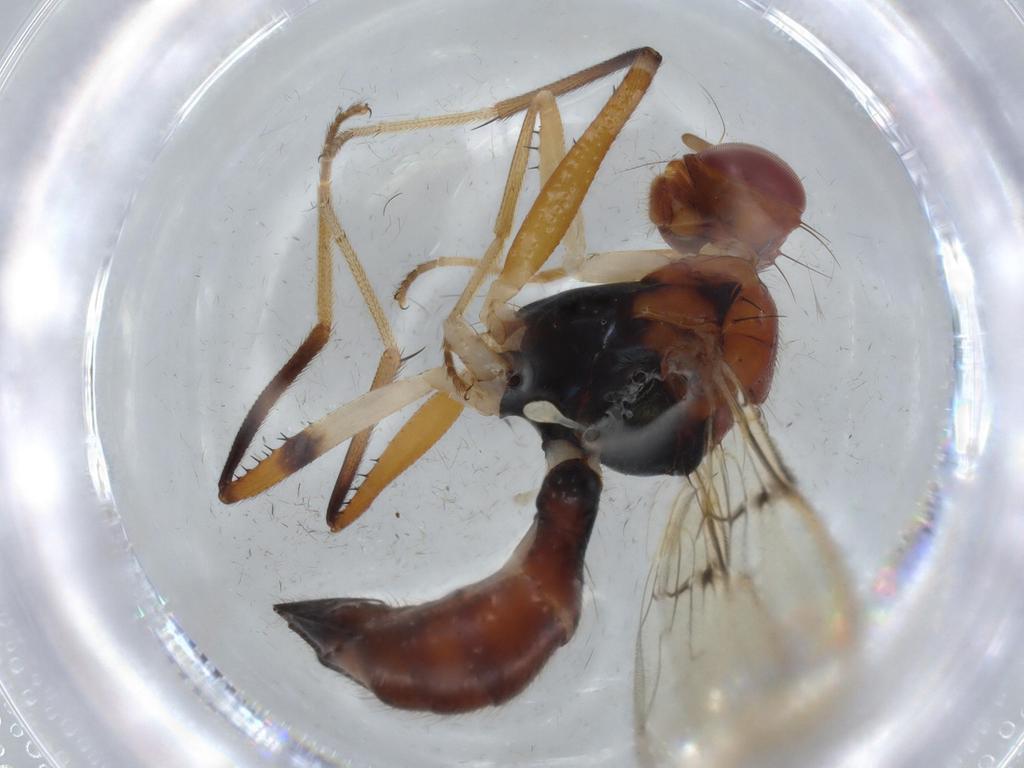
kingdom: Animalia
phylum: Arthropoda
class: Insecta
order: Diptera
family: Richardiidae
